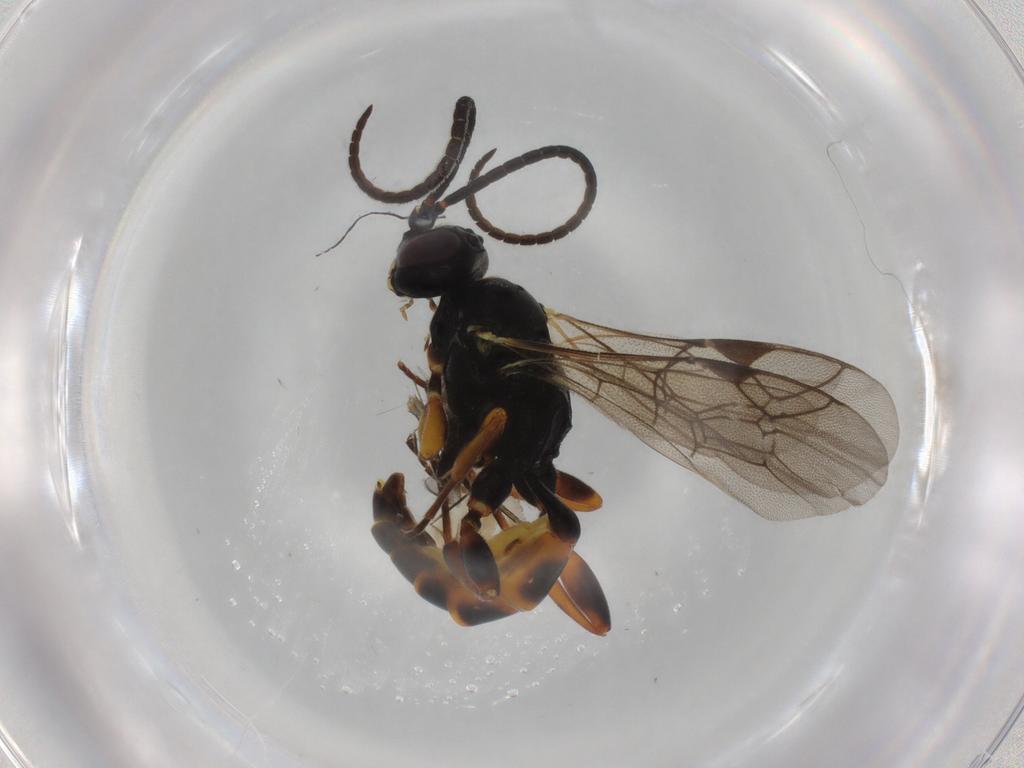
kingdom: Animalia
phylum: Arthropoda
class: Insecta
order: Hymenoptera
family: Ichneumonidae
